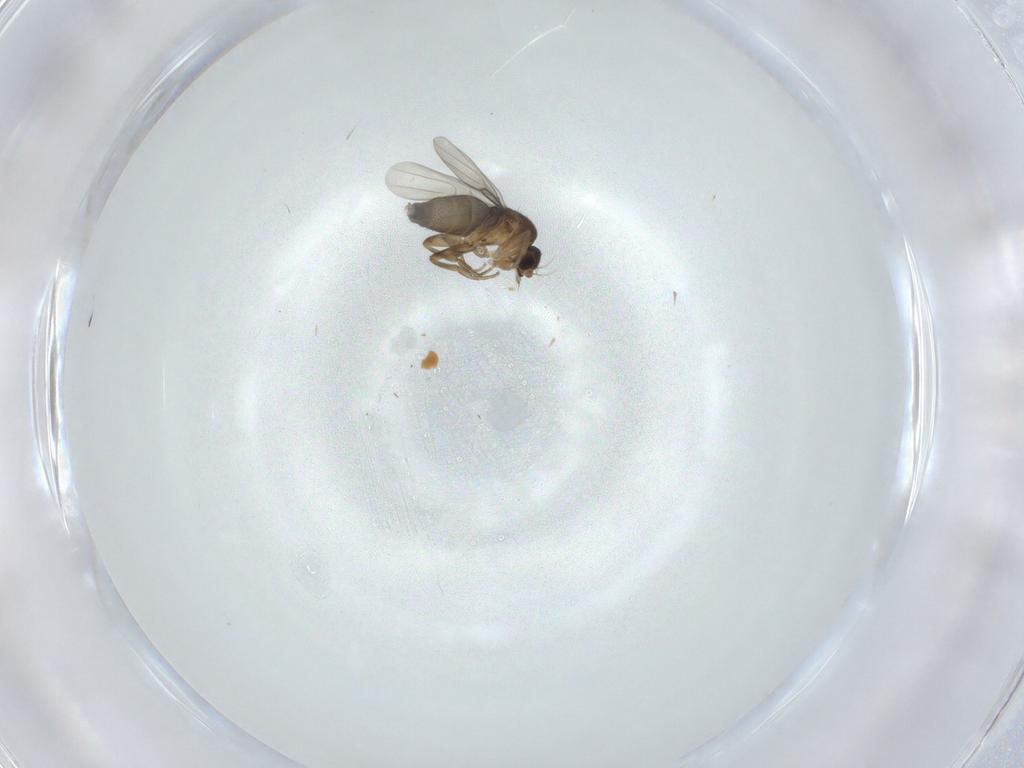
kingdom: Animalia
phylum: Arthropoda
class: Insecta
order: Diptera
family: Phoridae
